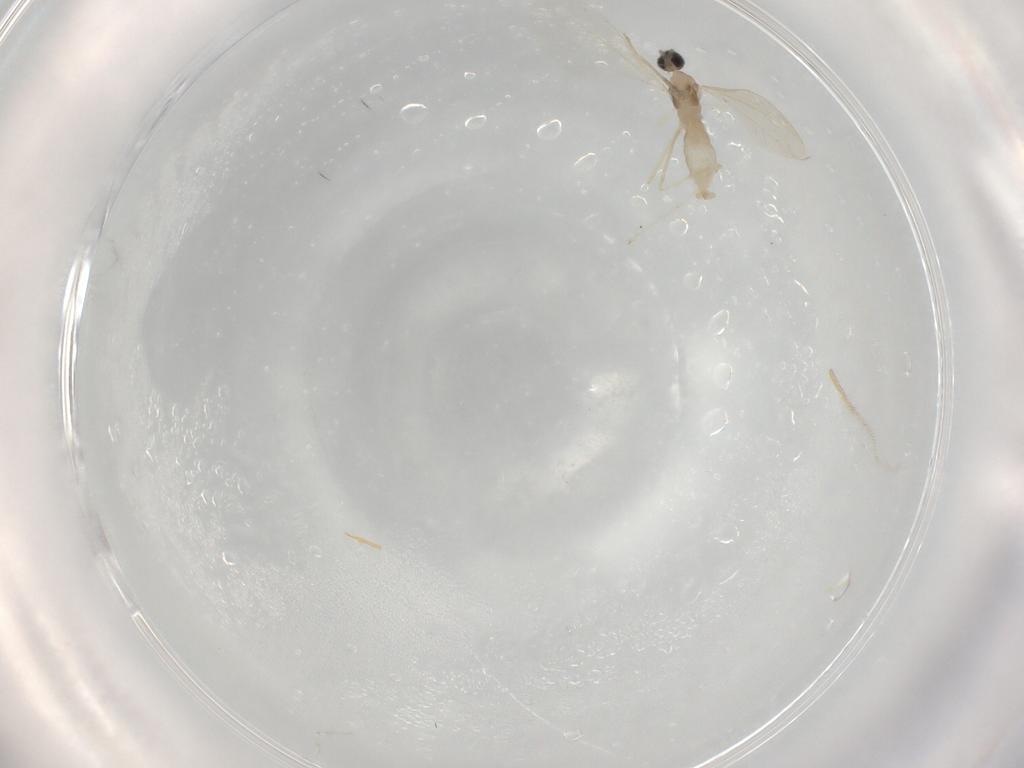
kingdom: Animalia
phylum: Arthropoda
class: Insecta
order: Diptera
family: Cecidomyiidae
